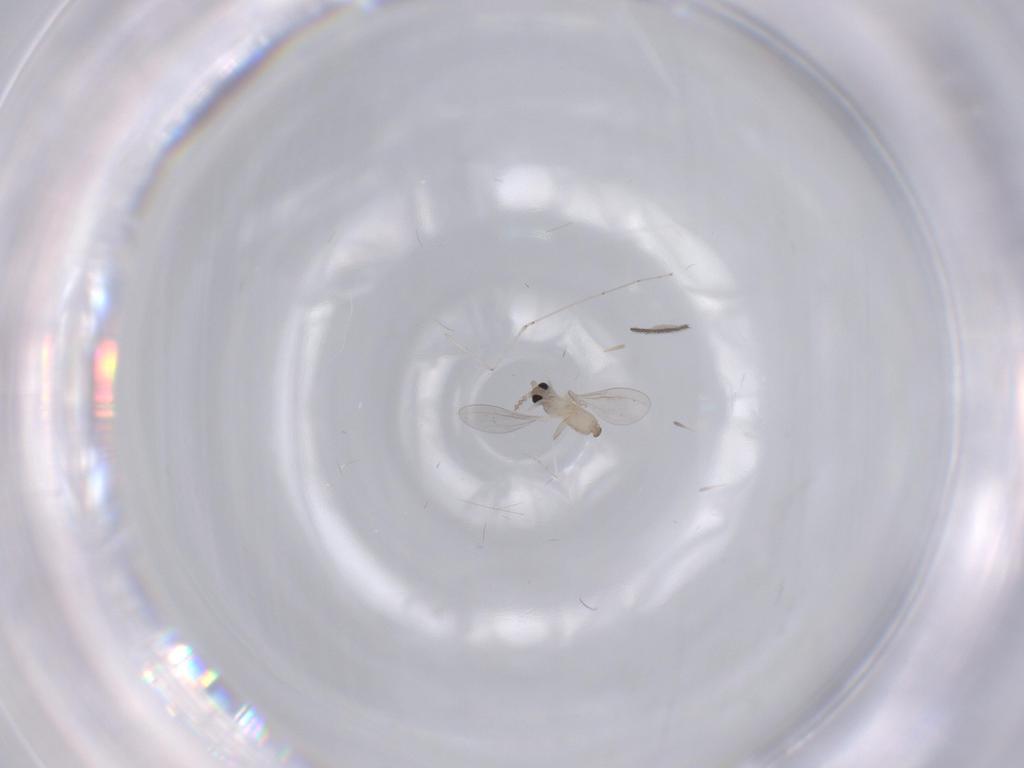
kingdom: Animalia
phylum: Arthropoda
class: Insecta
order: Diptera
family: Cecidomyiidae
